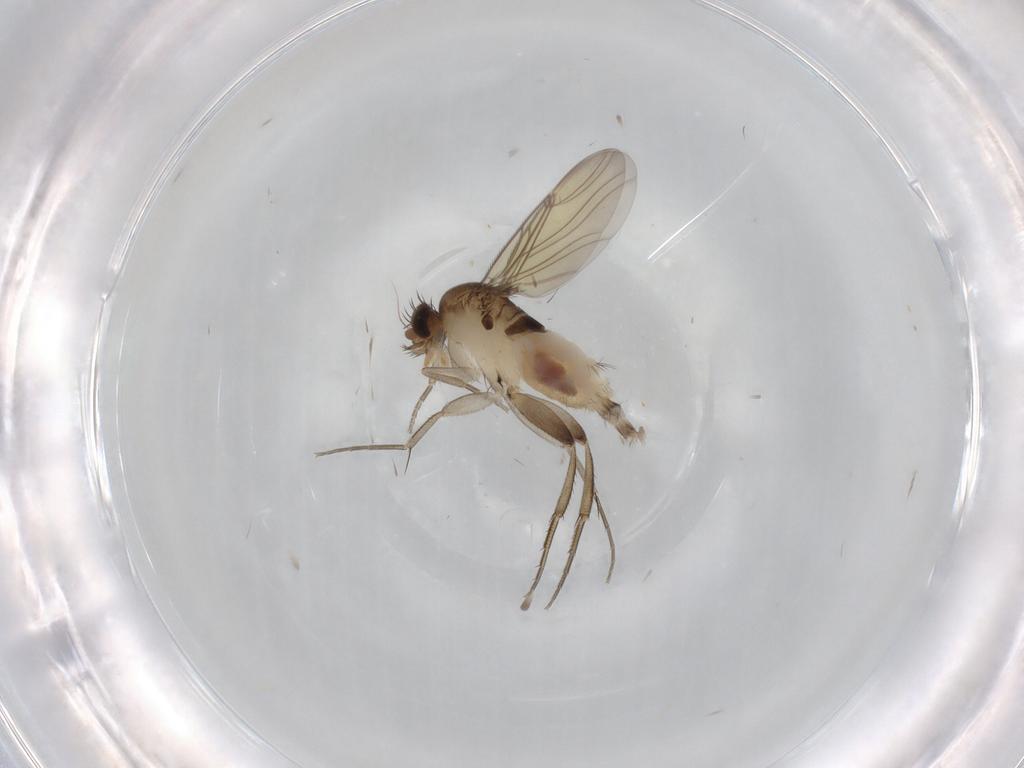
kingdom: Animalia
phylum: Arthropoda
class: Insecta
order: Diptera
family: Phoridae
